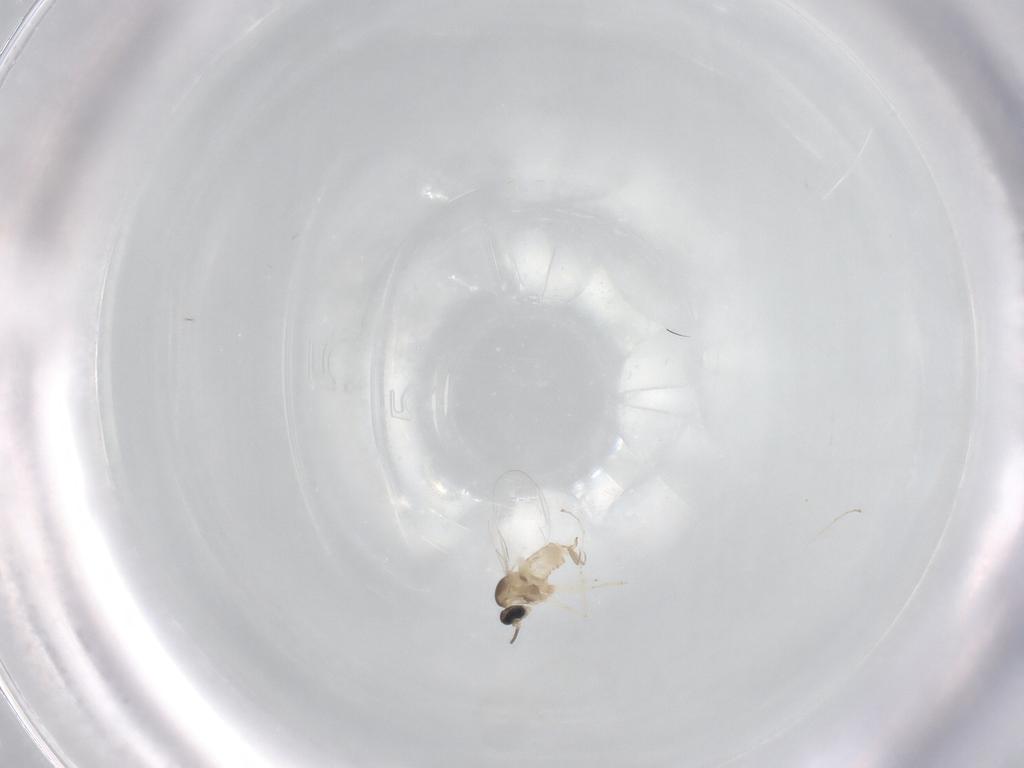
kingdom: Animalia
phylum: Arthropoda
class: Insecta
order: Diptera
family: Cecidomyiidae
